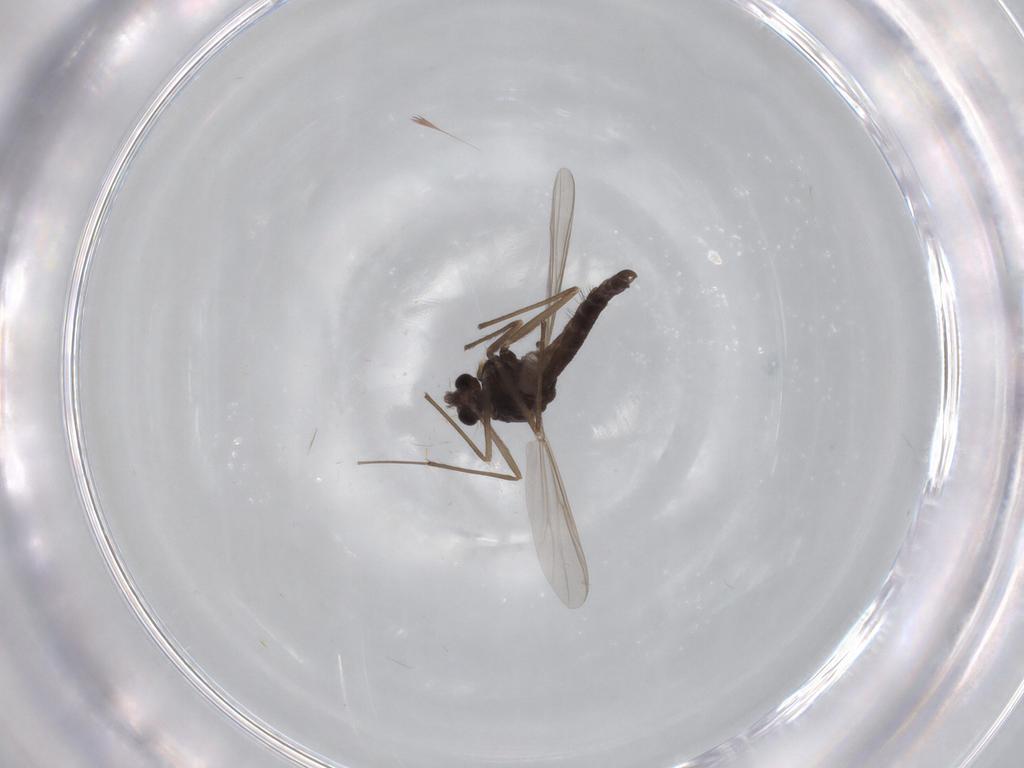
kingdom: Animalia
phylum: Arthropoda
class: Insecta
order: Diptera
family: Chironomidae
